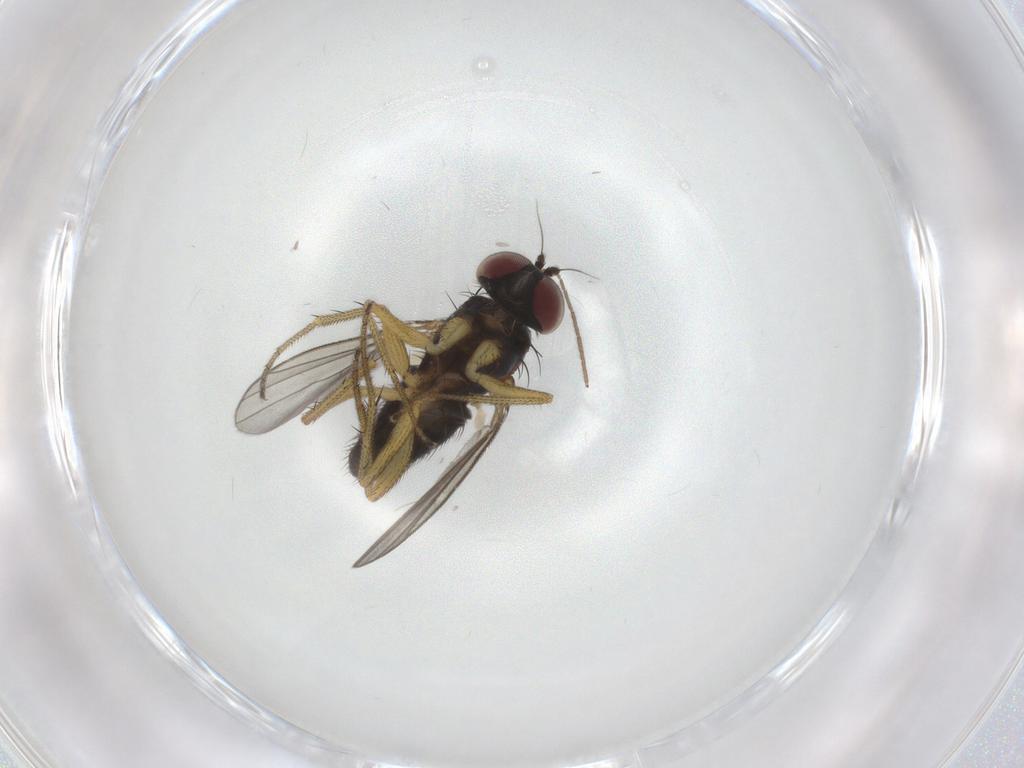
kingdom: Animalia
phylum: Arthropoda
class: Insecta
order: Diptera
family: Dolichopodidae
